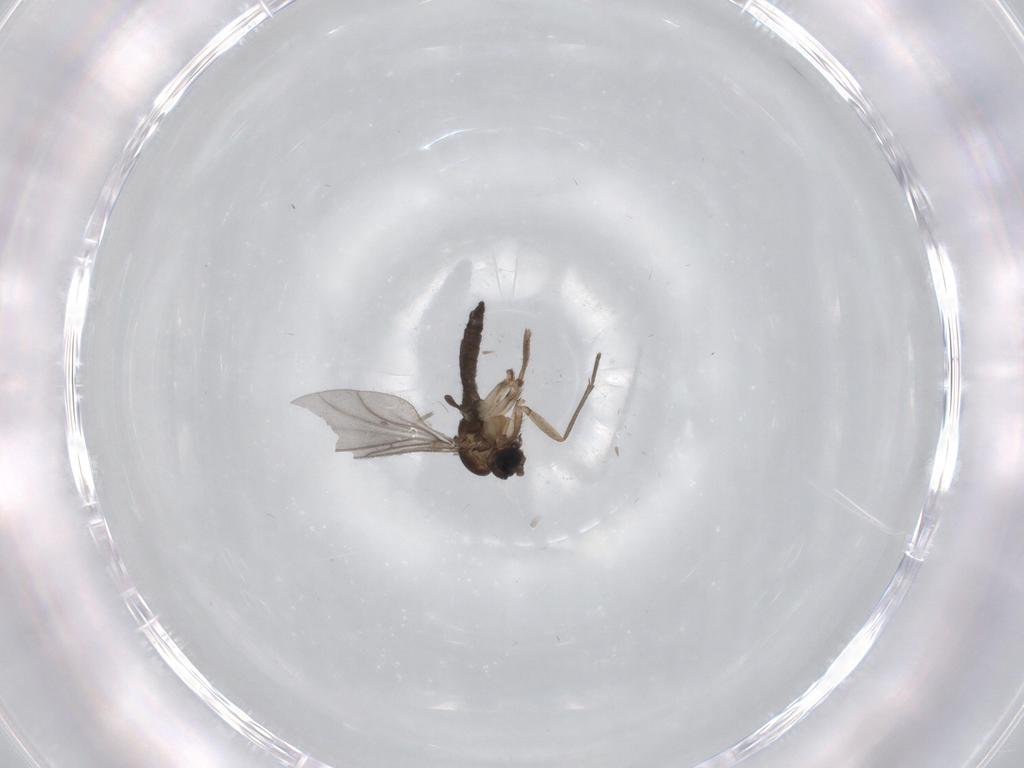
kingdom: Animalia
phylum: Arthropoda
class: Insecta
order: Diptera
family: Sciaridae
